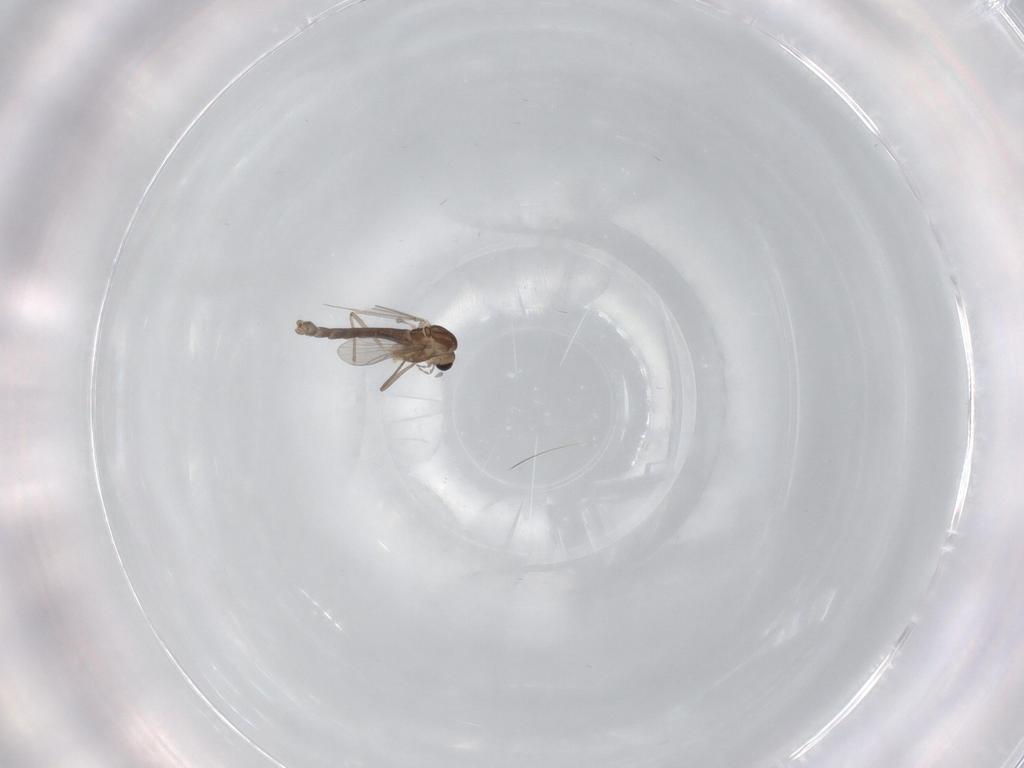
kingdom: Animalia
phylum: Arthropoda
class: Insecta
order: Diptera
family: Chironomidae
